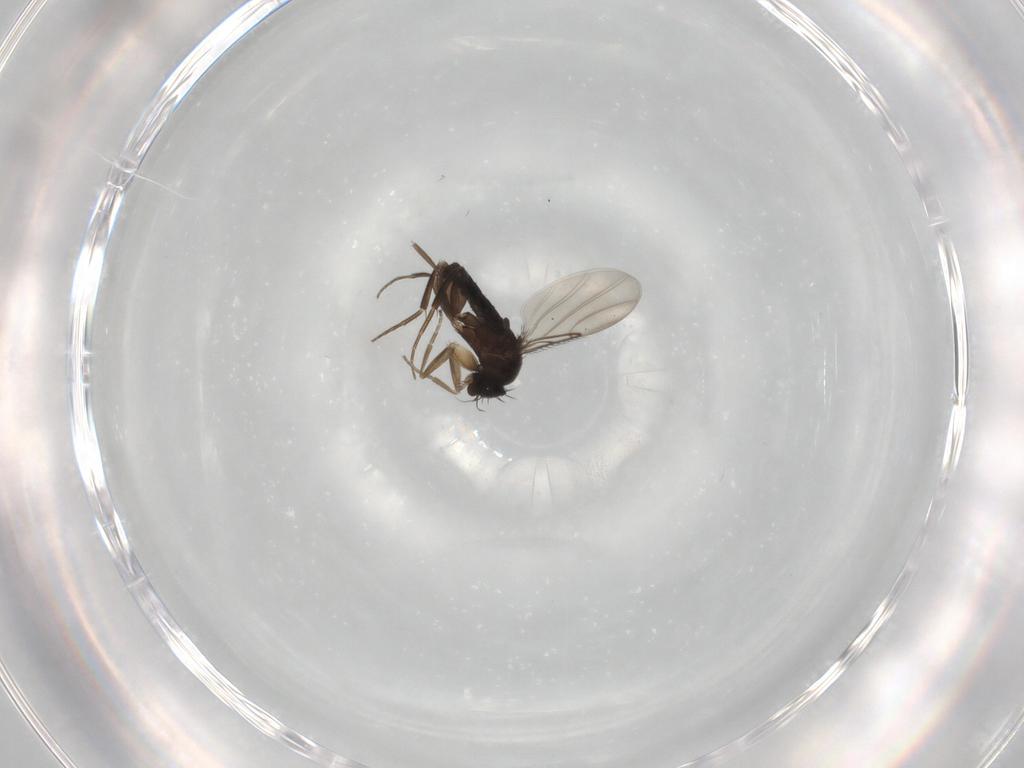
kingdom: Animalia
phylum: Arthropoda
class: Insecta
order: Diptera
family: Phoridae
